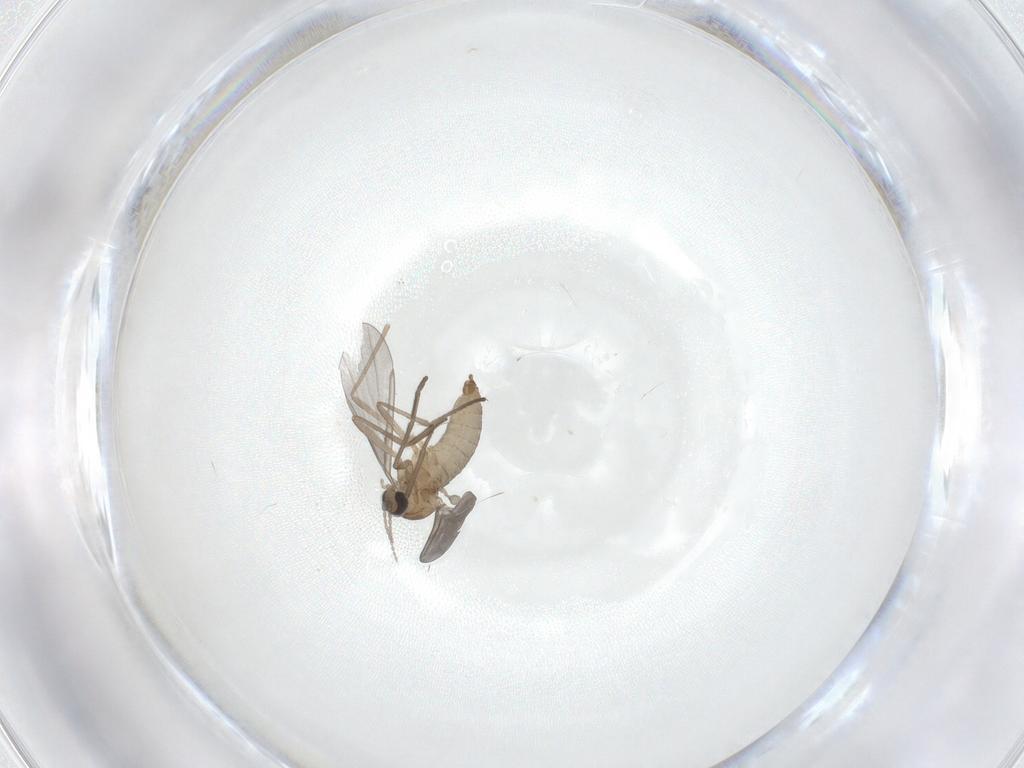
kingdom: Animalia
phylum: Arthropoda
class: Insecta
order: Diptera
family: Cecidomyiidae
